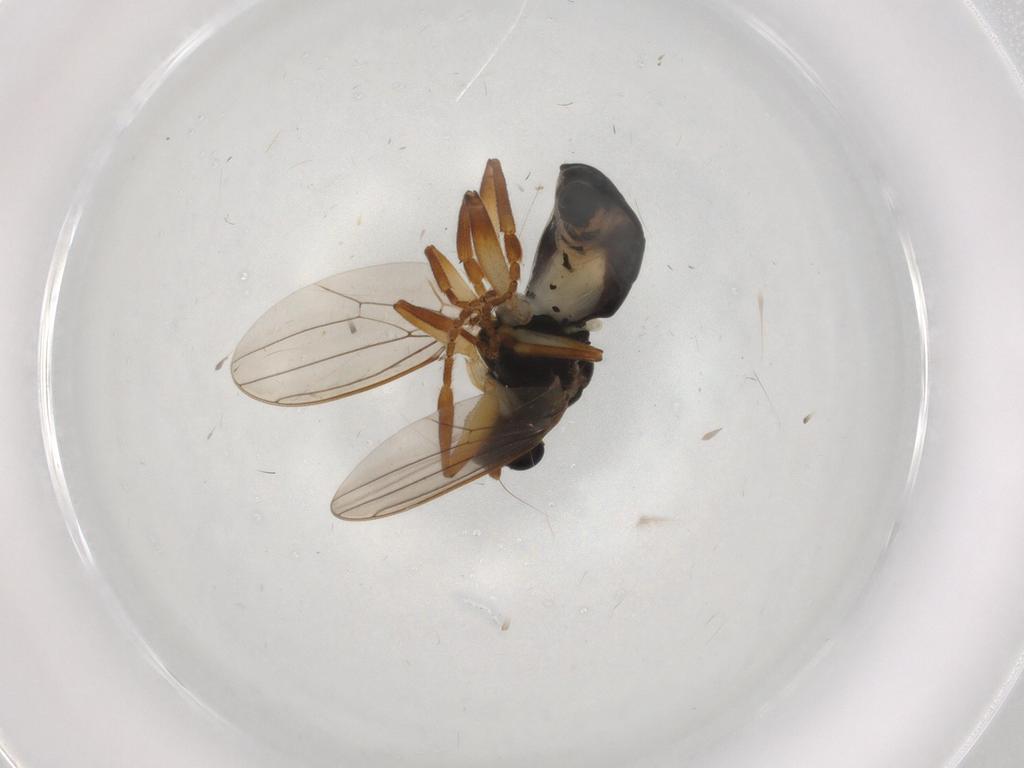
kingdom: Animalia
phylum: Arthropoda
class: Insecta
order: Diptera
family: Sphaeroceridae
